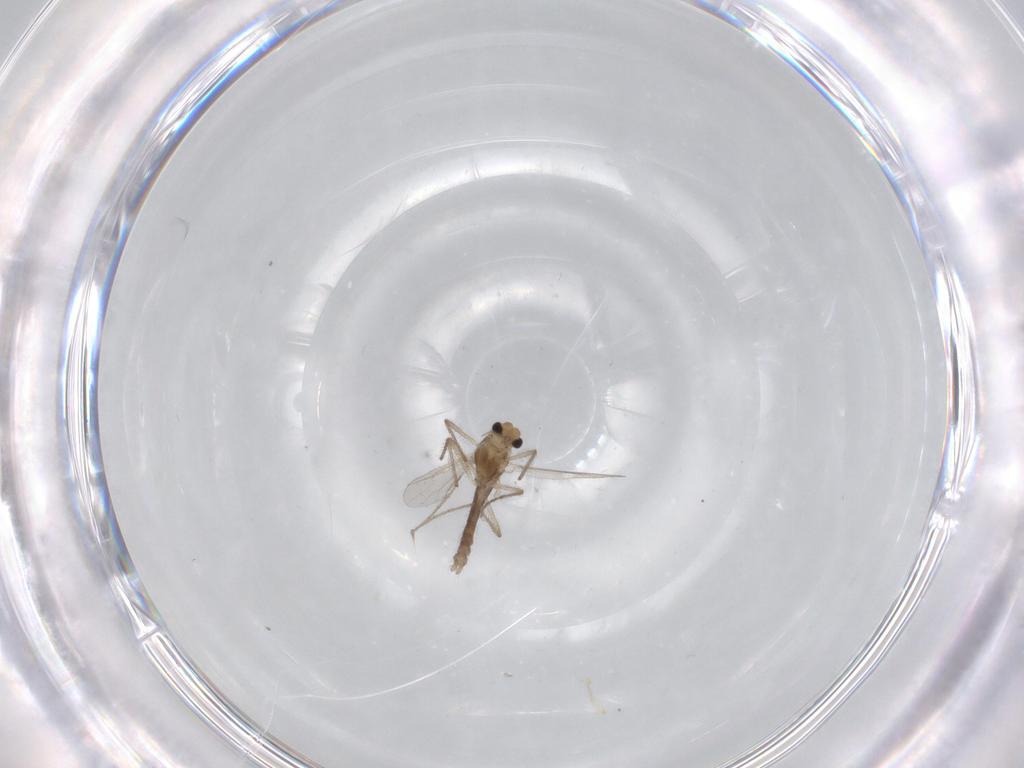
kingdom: Animalia
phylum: Arthropoda
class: Insecta
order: Diptera
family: Chironomidae
